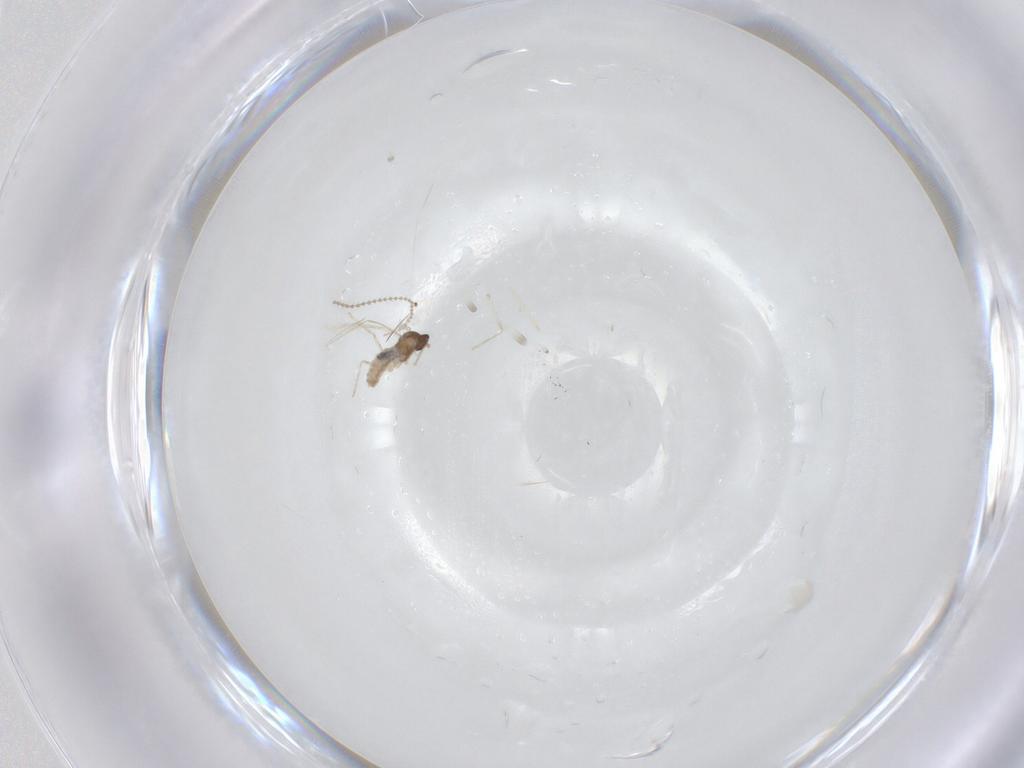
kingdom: Animalia
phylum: Arthropoda
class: Insecta
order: Diptera
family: Cecidomyiidae
